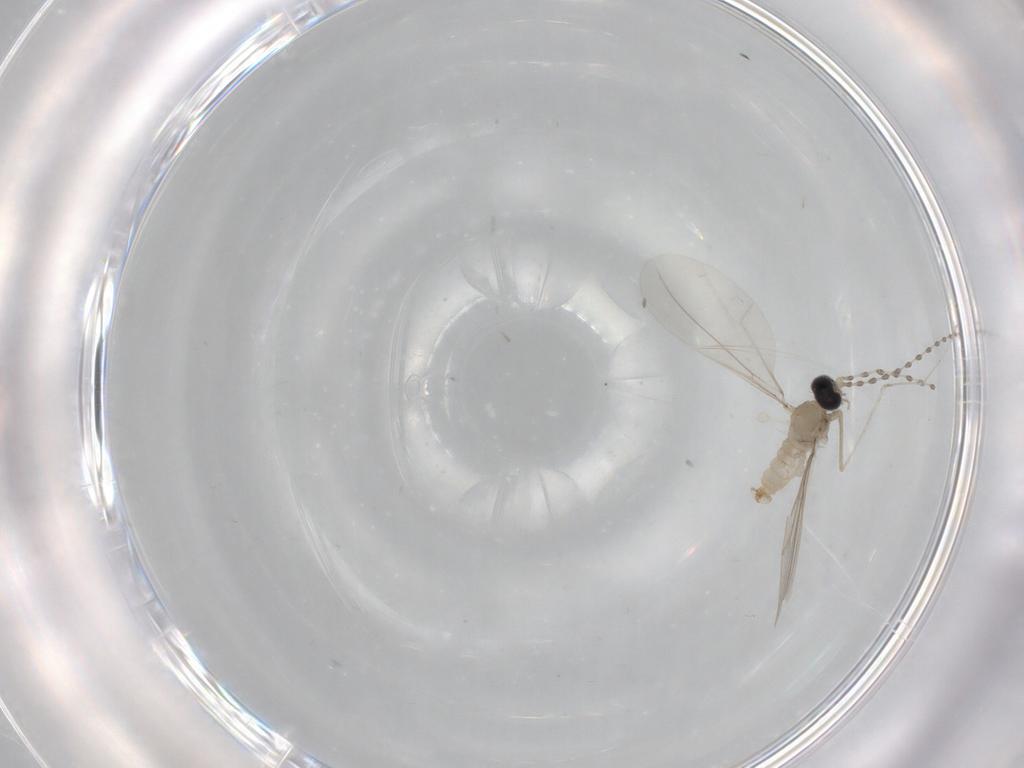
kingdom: Animalia
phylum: Arthropoda
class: Insecta
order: Diptera
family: Cecidomyiidae
